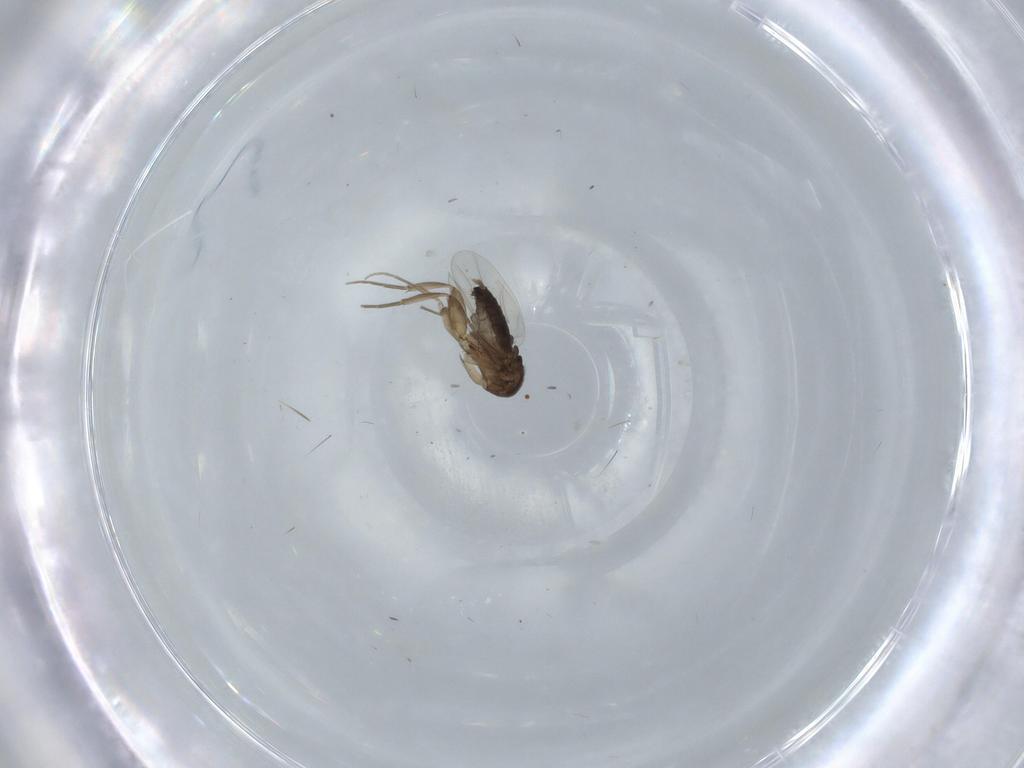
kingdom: Animalia
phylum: Arthropoda
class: Insecta
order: Diptera
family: Phoridae
